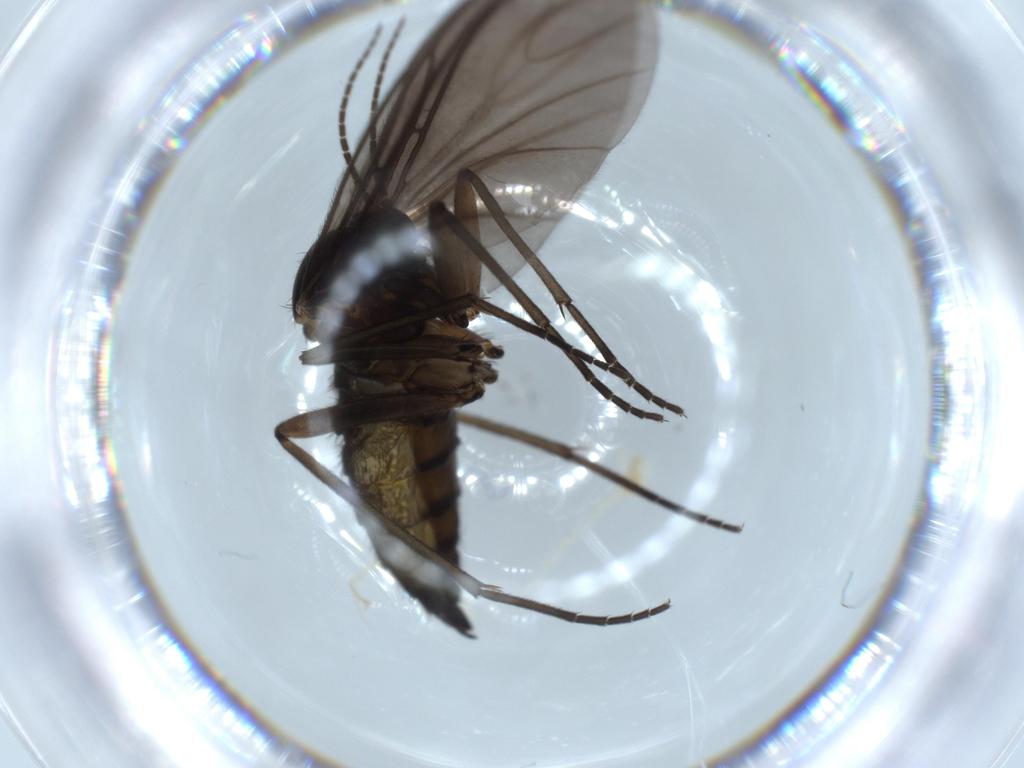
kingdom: Animalia
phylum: Arthropoda
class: Insecta
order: Diptera
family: Sciaridae
